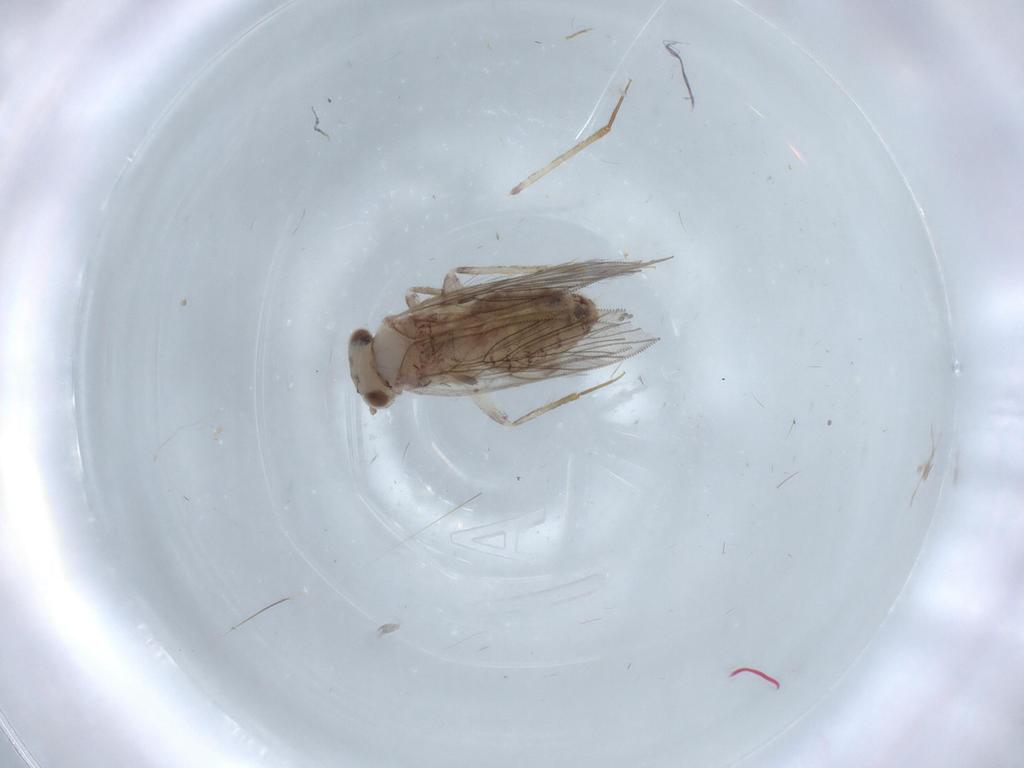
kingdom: Animalia
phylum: Arthropoda
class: Insecta
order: Psocodea
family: Lepidopsocidae
